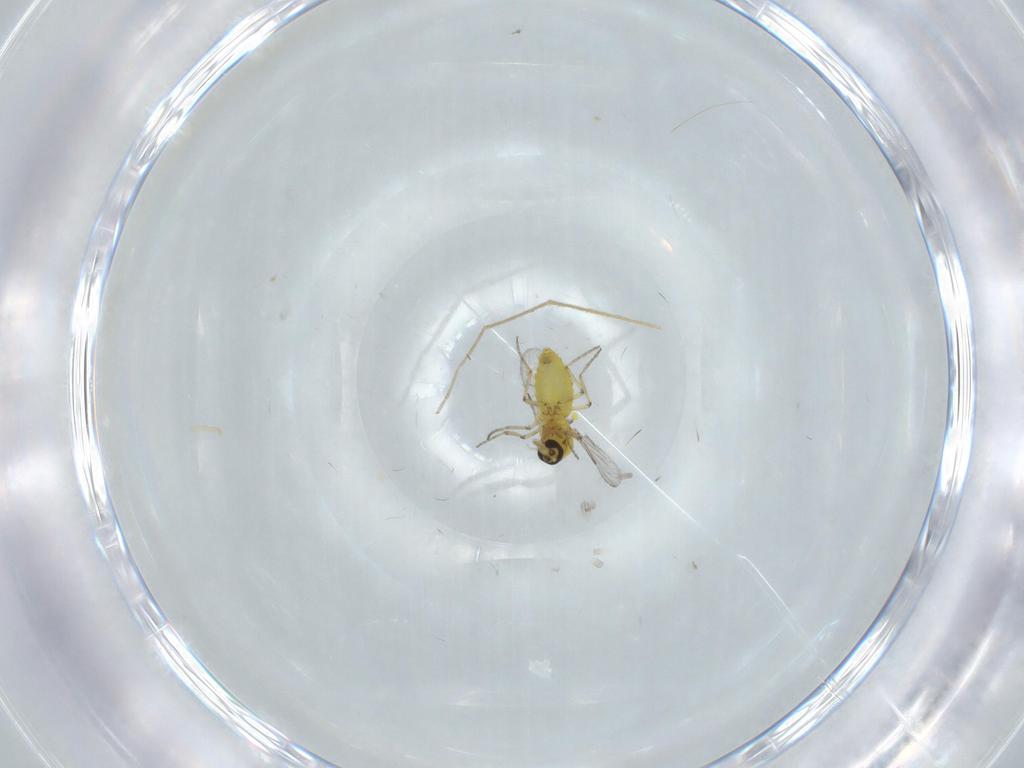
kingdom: Animalia
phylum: Arthropoda
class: Insecta
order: Diptera
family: Ceratopogonidae
